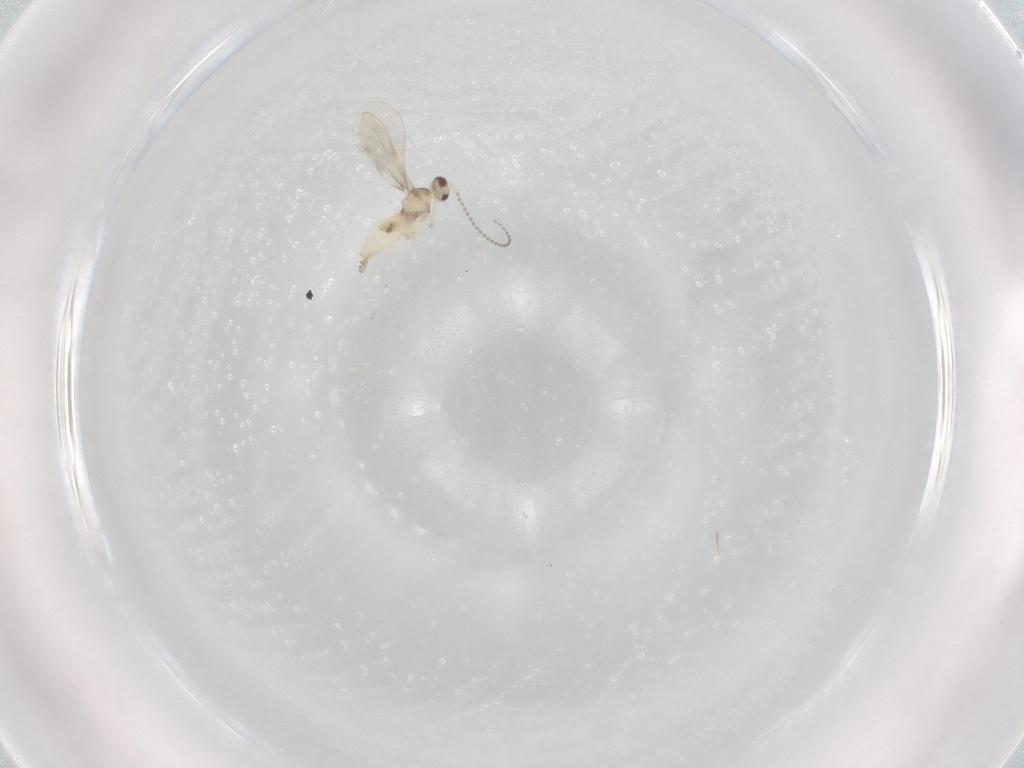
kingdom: Animalia
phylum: Arthropoda
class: Insecta
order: Diptera
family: Cecidomyiidae
